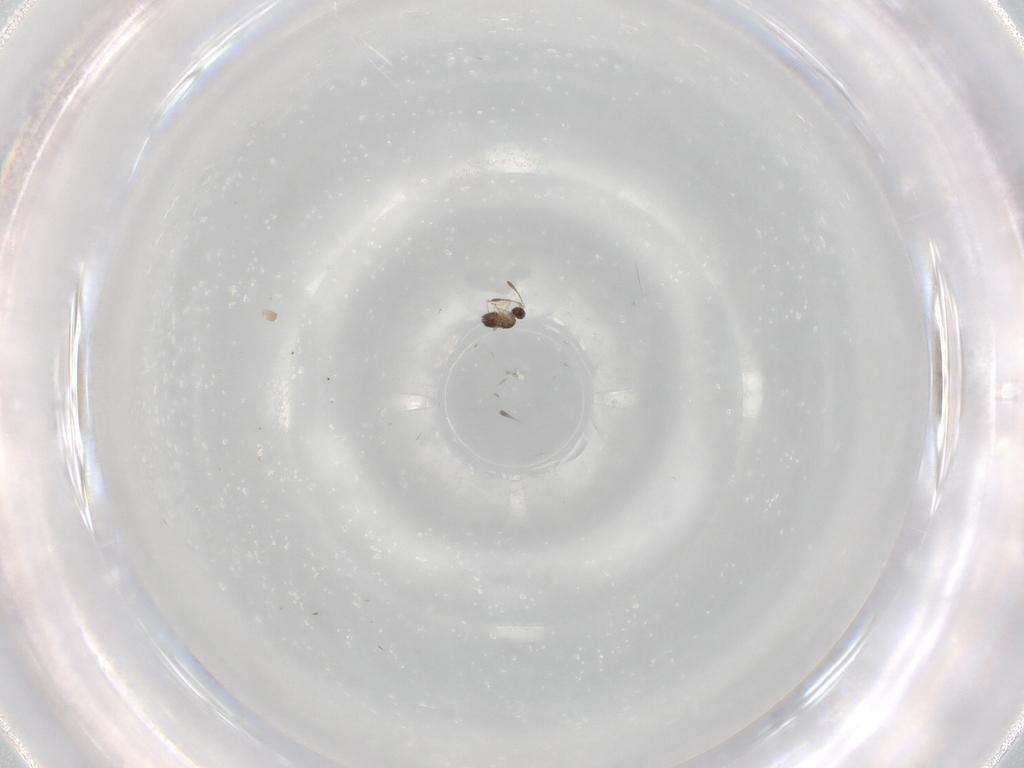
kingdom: Animalia
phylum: Arthropoda
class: Insecta
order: Hymenoptera
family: Mymaridae
